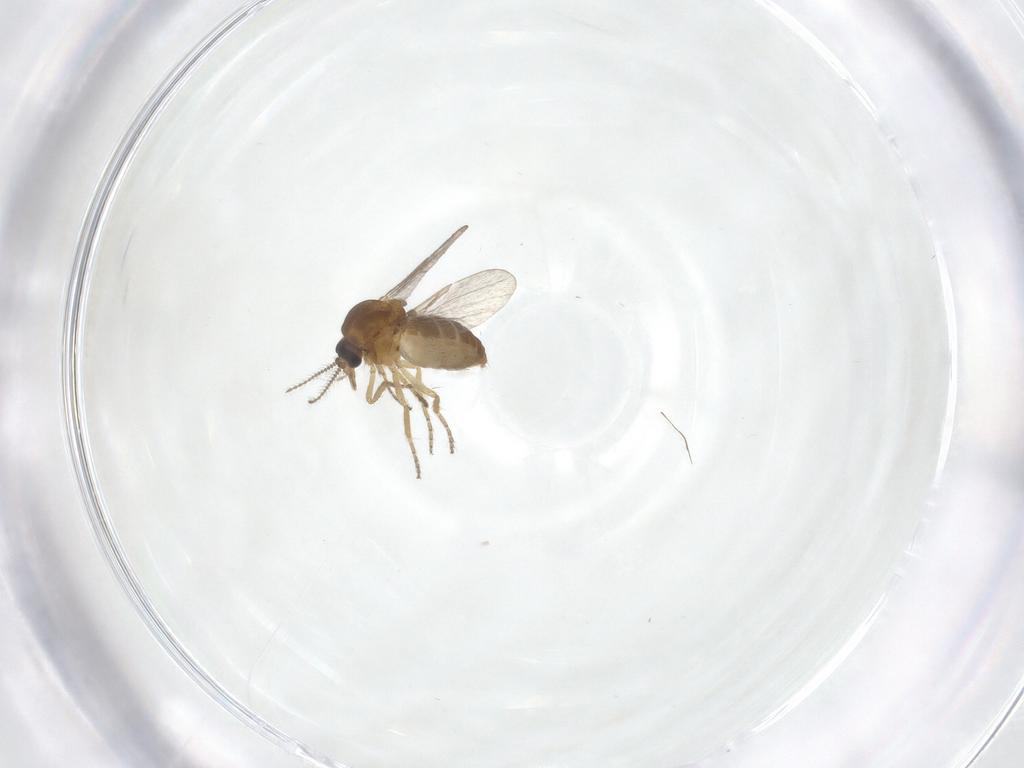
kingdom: Animalia
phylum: Arthropoda
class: Insecta
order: Diptera
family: Ceratopogonidae
